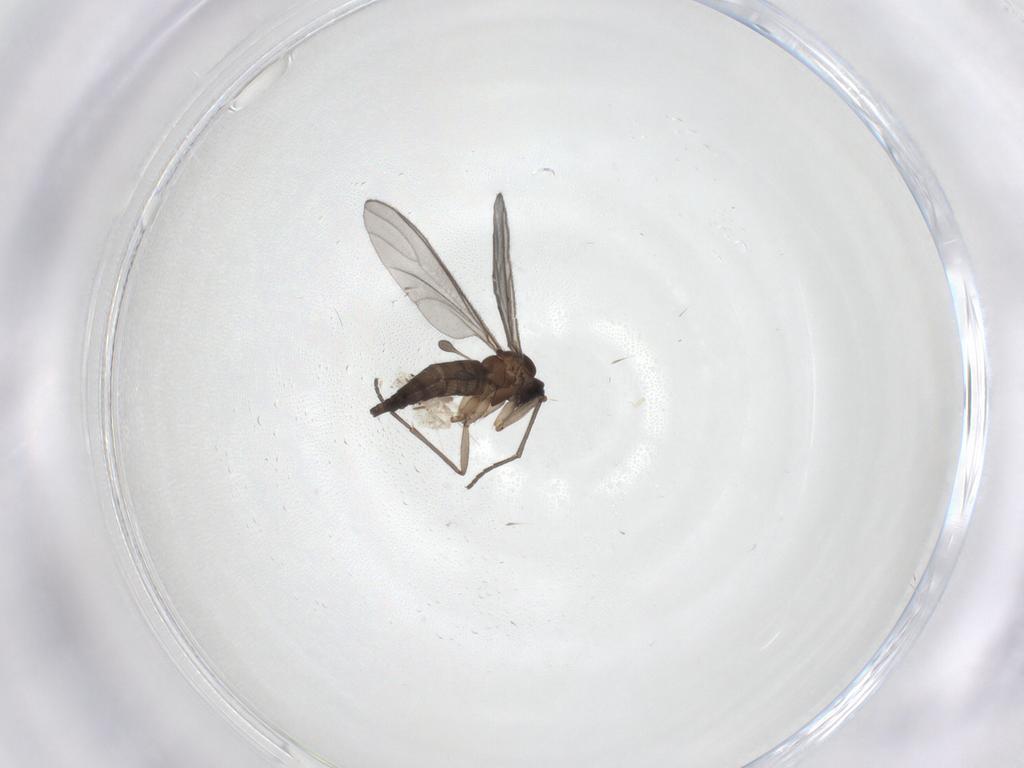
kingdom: Animalia
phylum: Arthropoda
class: Insecta
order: Diptera
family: Chironomidae
